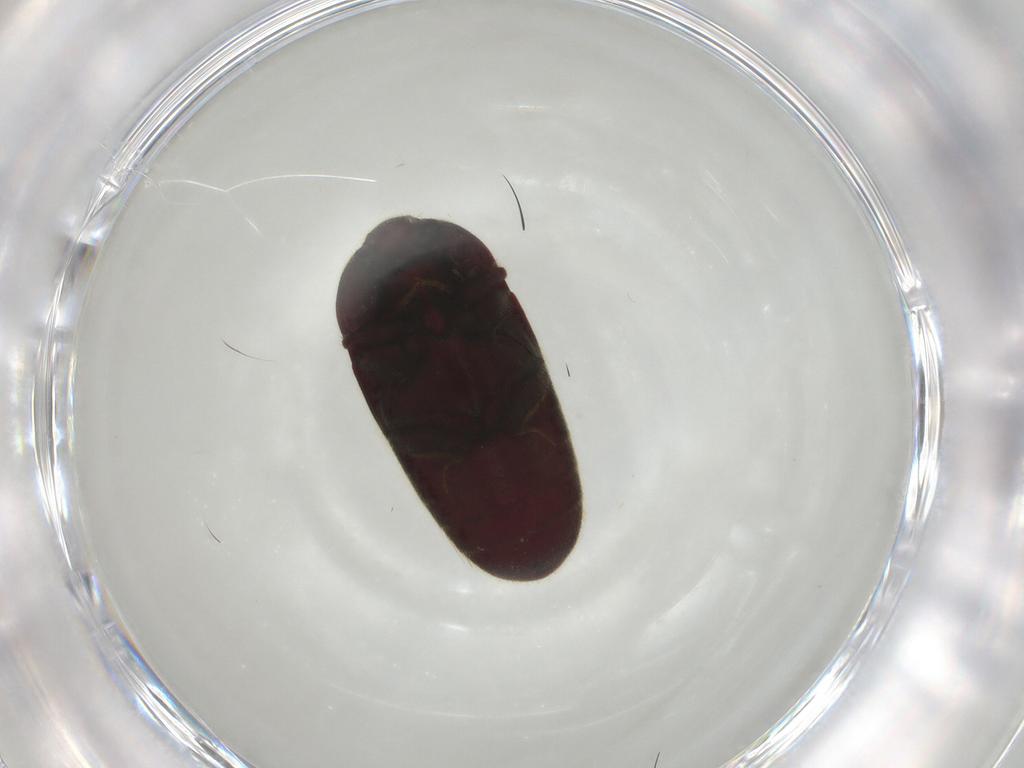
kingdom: Animalia
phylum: Arthropoda
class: Insecta
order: Coleoptera
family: Throscidae
